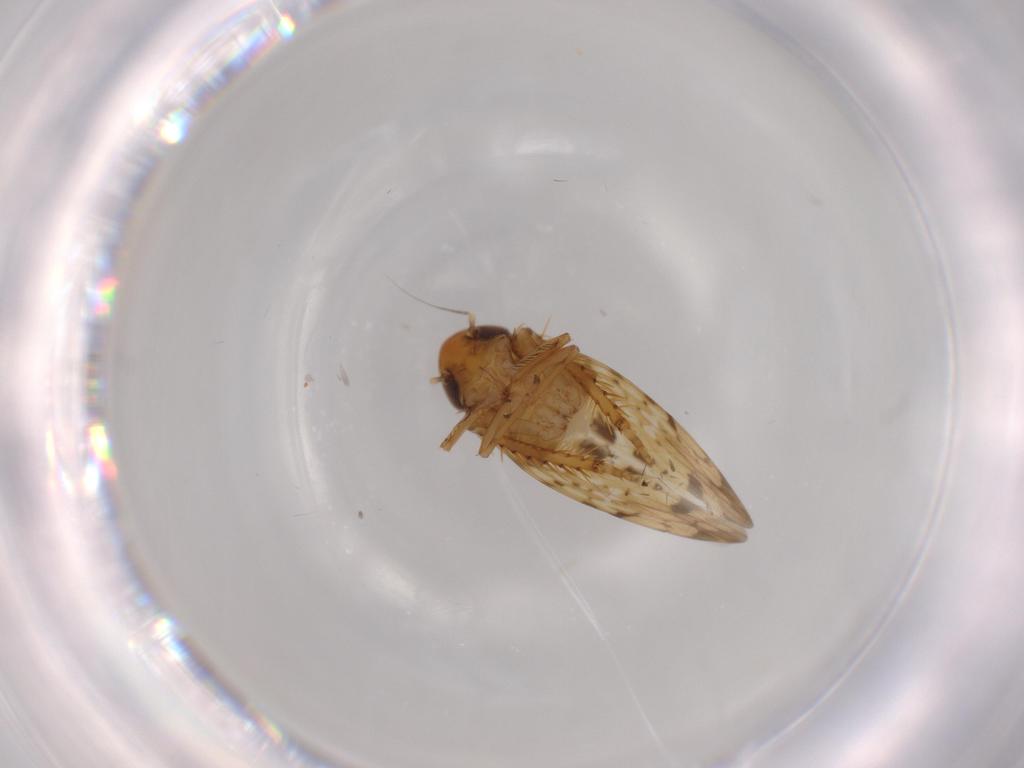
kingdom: Animalia
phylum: Arthropoda
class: Insecta
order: Hemiptera
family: Cicadellidae
